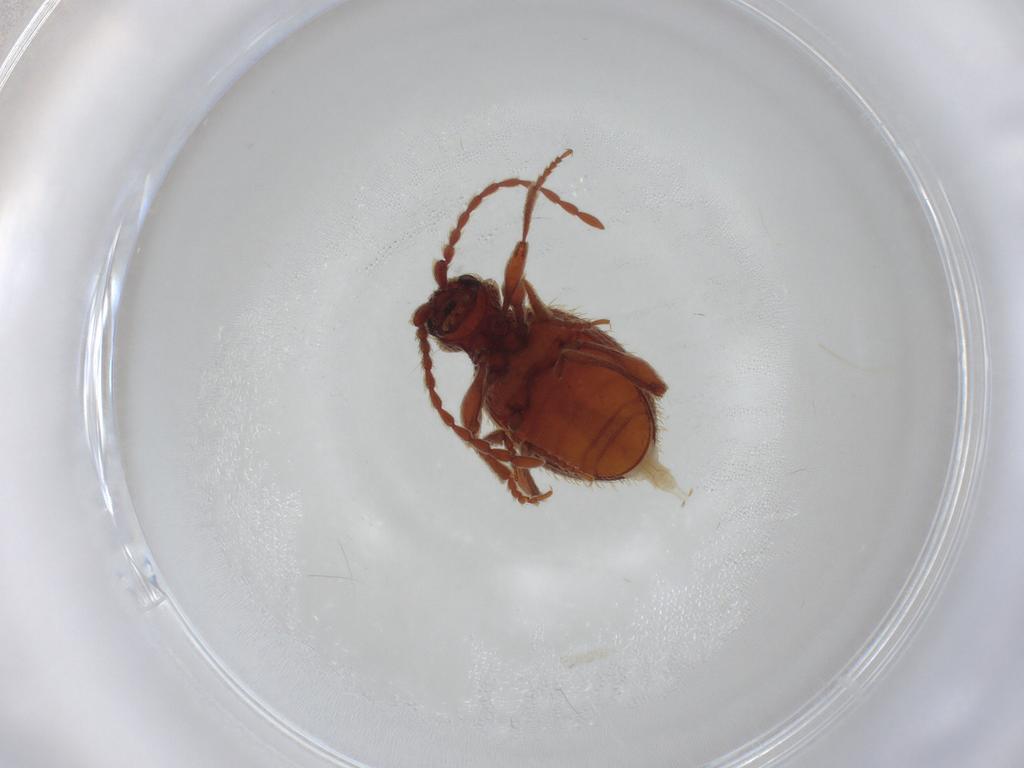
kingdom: Animalia
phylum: Arthropoda
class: Insecta
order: Coleoptera
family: Ptinidae
